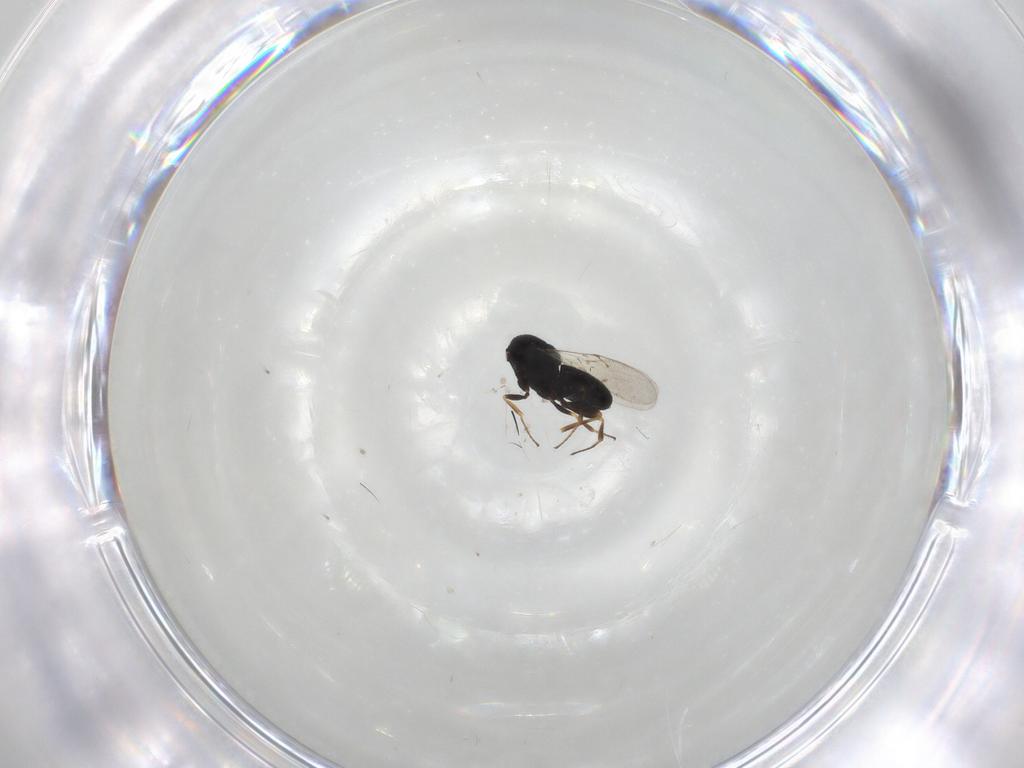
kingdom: Animalia
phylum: Arthropoda
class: Insecta
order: Hymenoptera
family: Scelionidae
